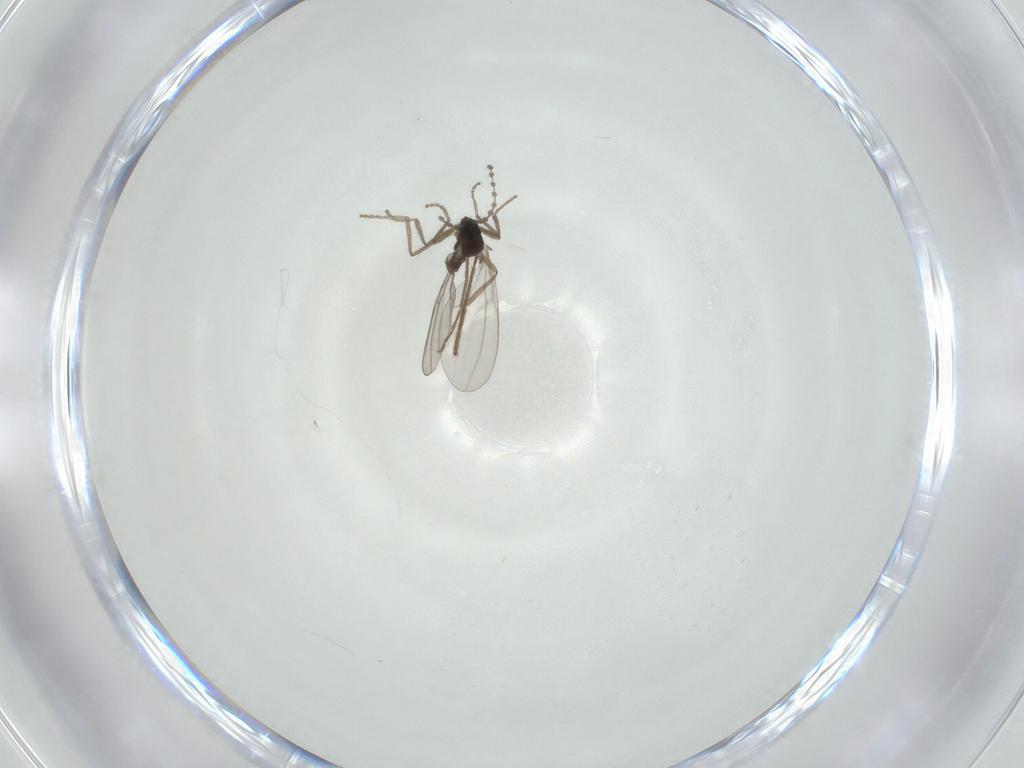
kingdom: Animalia
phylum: Arthropoda
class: Insecta
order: Diptera
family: Cecidomyiidae
